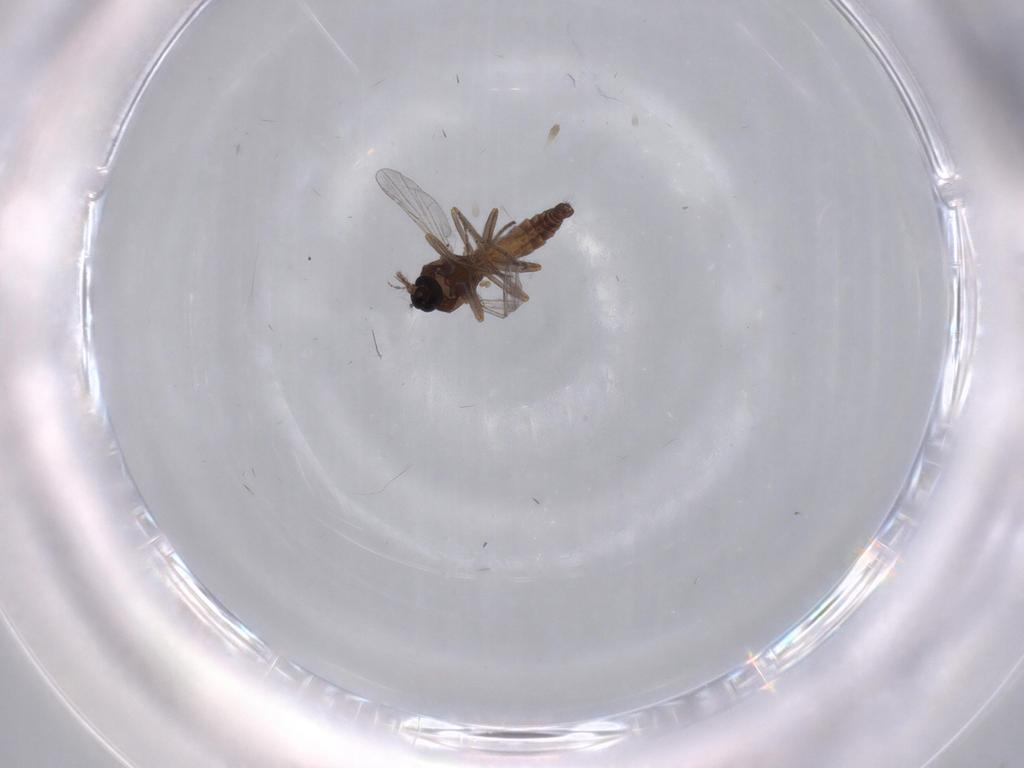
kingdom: Animalia
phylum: Arthropoda
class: Insecta
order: Diptera
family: Ceratopogonidae
